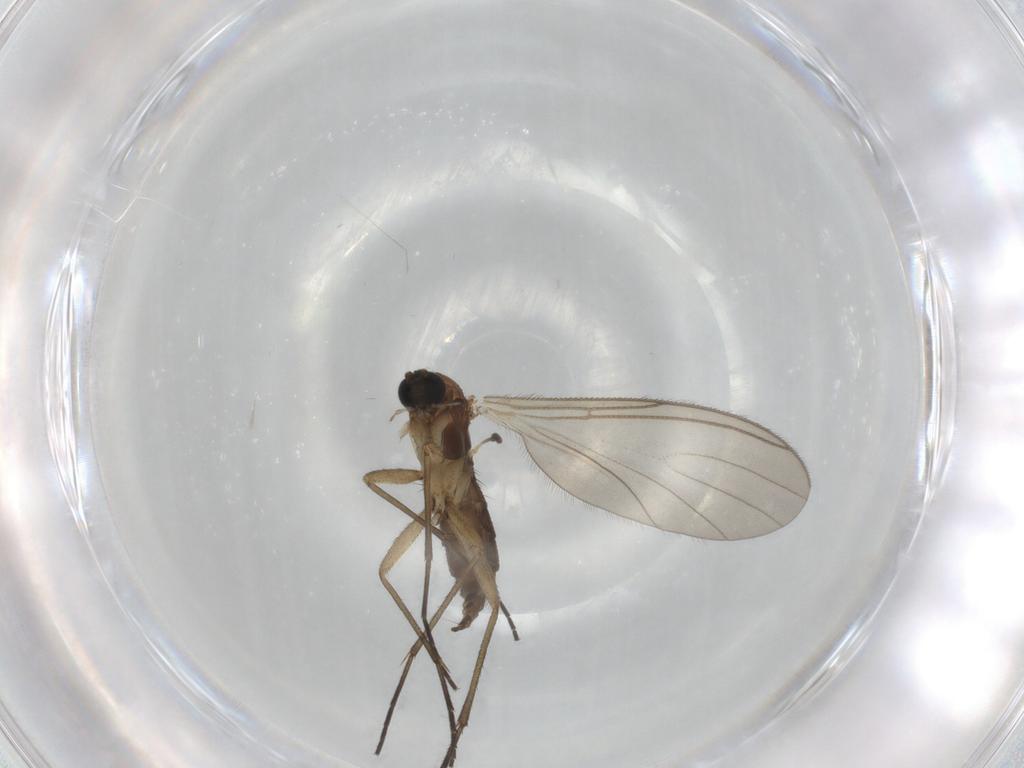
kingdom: Animalia
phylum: Arthropoda
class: Insecta
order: Diptera
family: Sciaridae
